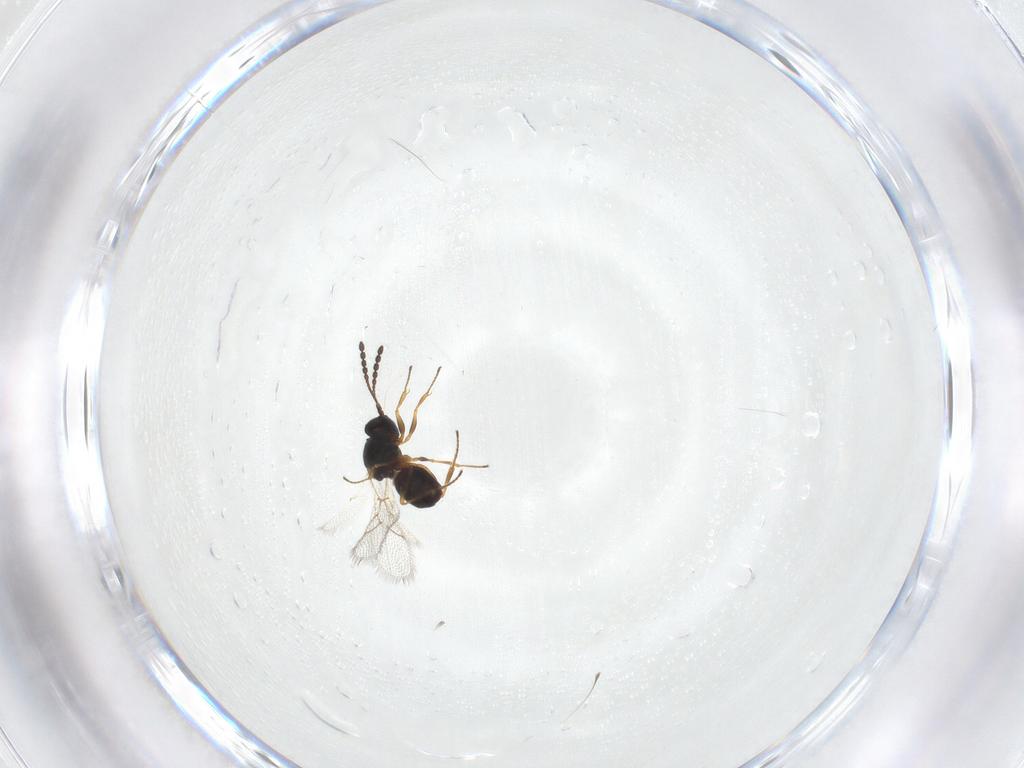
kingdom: Animalia
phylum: Arthropoda
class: Insecta
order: Hymenoptera
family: Figitidae
